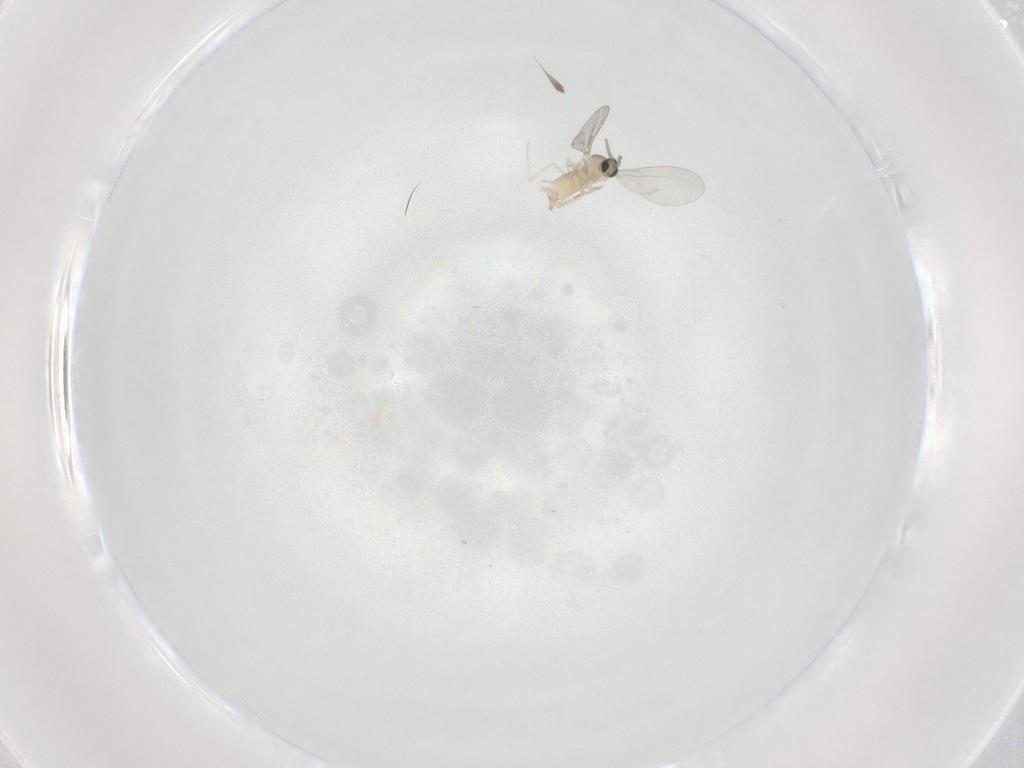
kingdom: Animalia
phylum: Arthropoda
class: Insecta
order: Diptera
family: Cecidomyiidae
